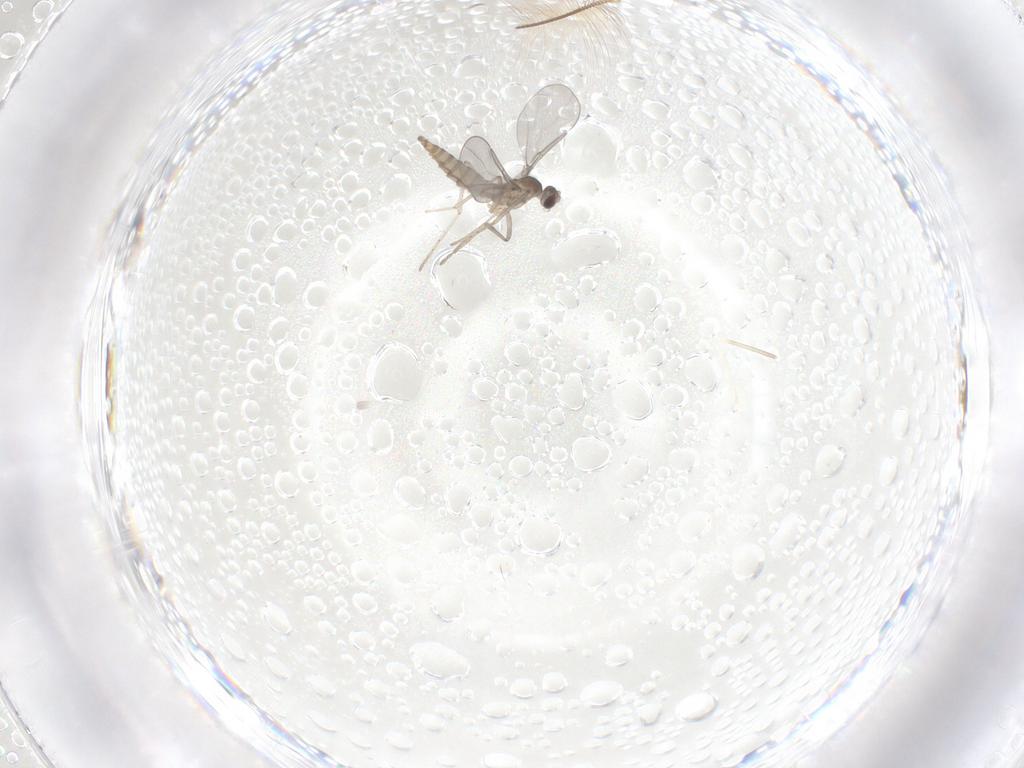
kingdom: Animalia
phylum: Arthropoda
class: Insecta
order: Diptera
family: Cecidomyiidae
